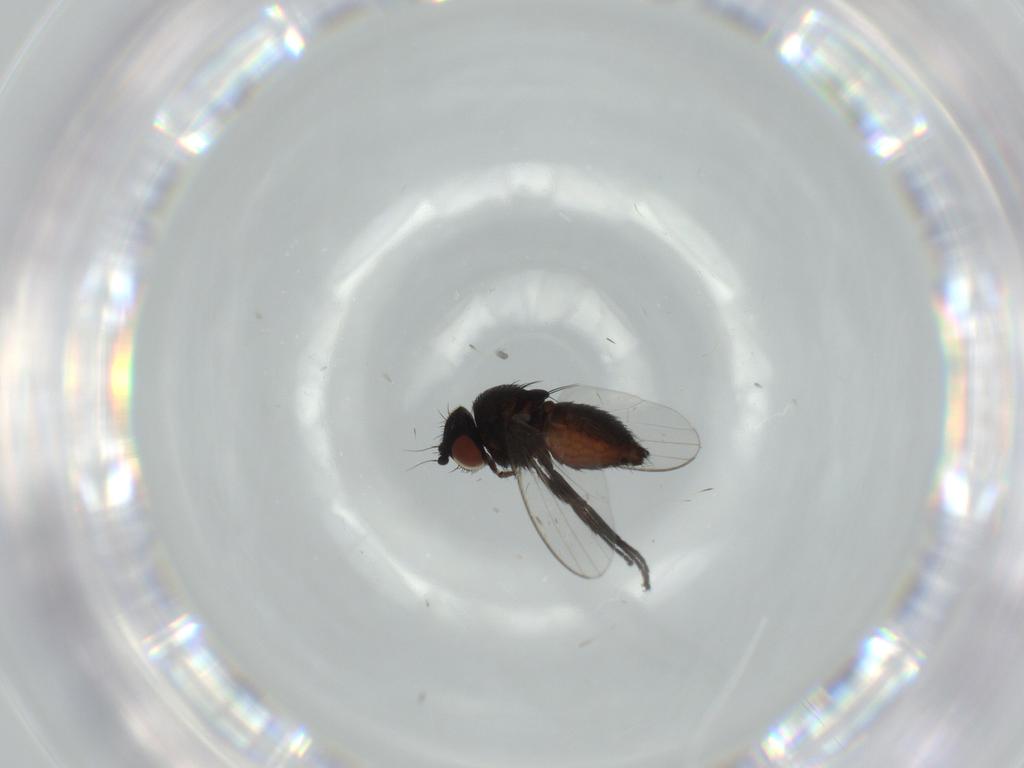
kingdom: Animalia
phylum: Arthropoda
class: Insecta
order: Diptera
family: Milichiidae
